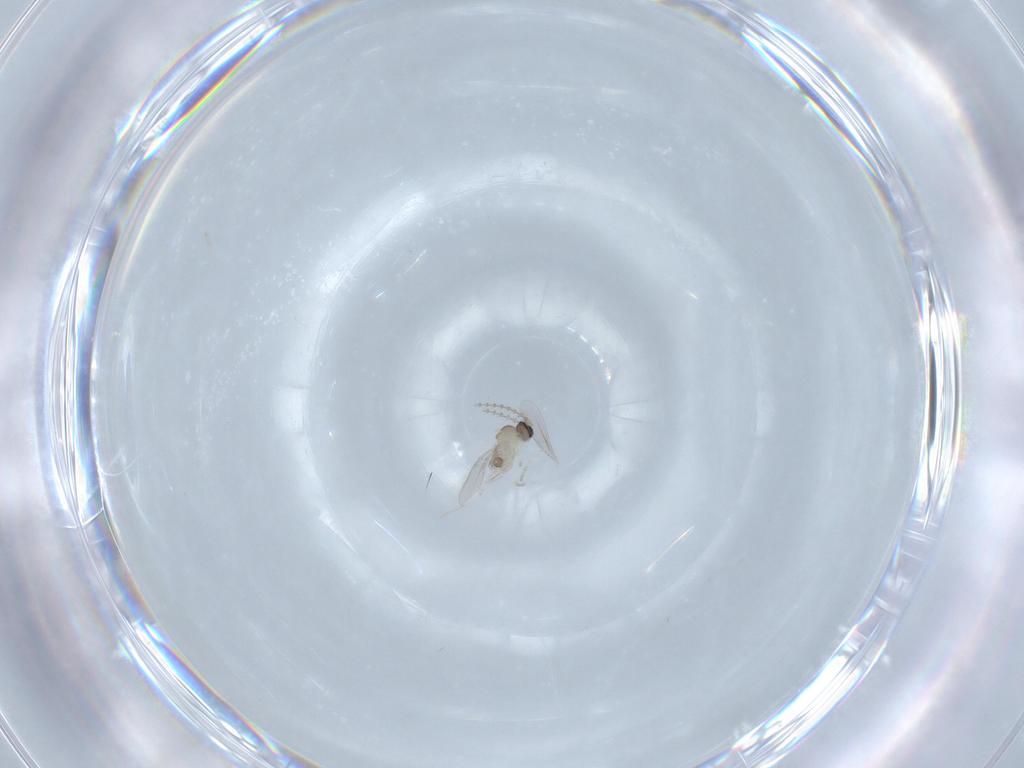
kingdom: Animalia
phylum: Arthropoda
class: Insecta
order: Diptera
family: Cecidomyiidae
